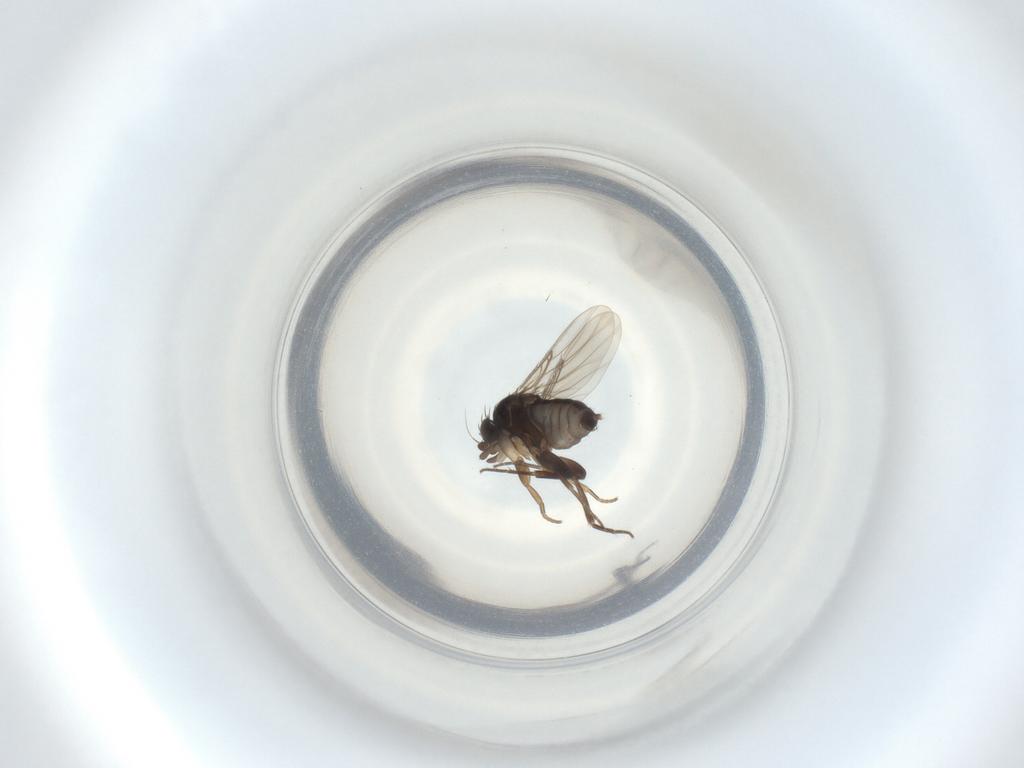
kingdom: Animalia
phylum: Arthropoda
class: Insecta
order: Diptera
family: Phoridae
